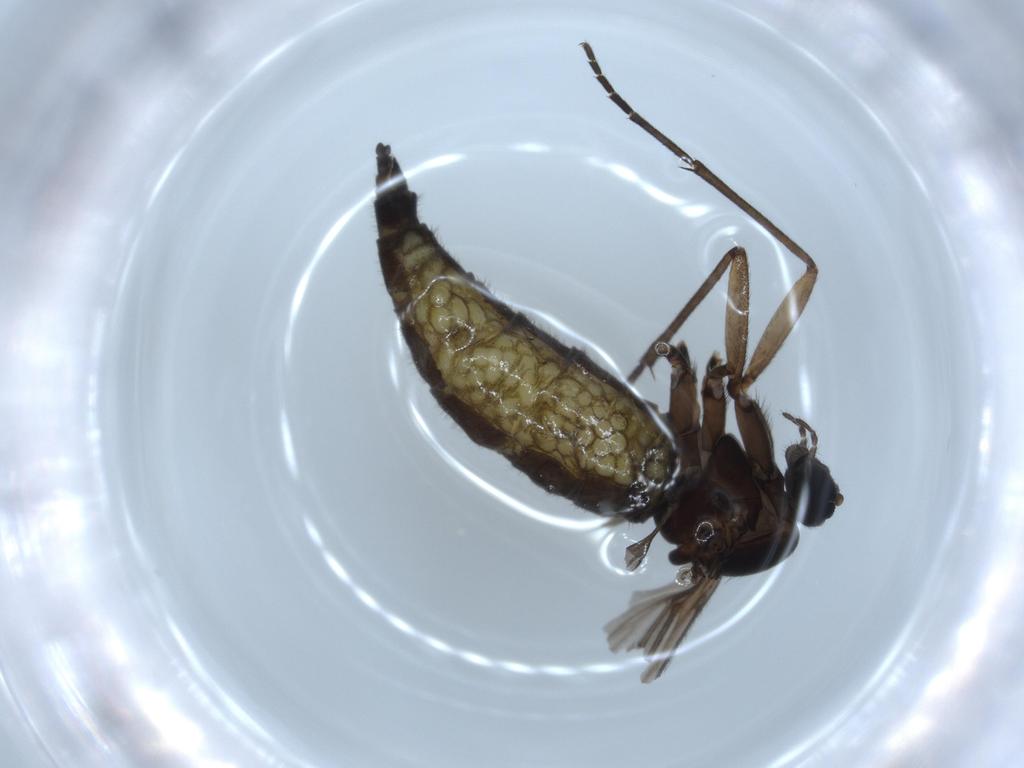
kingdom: Animalia
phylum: Arthropoda
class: Insecta
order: Diptera
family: Sciaridae
